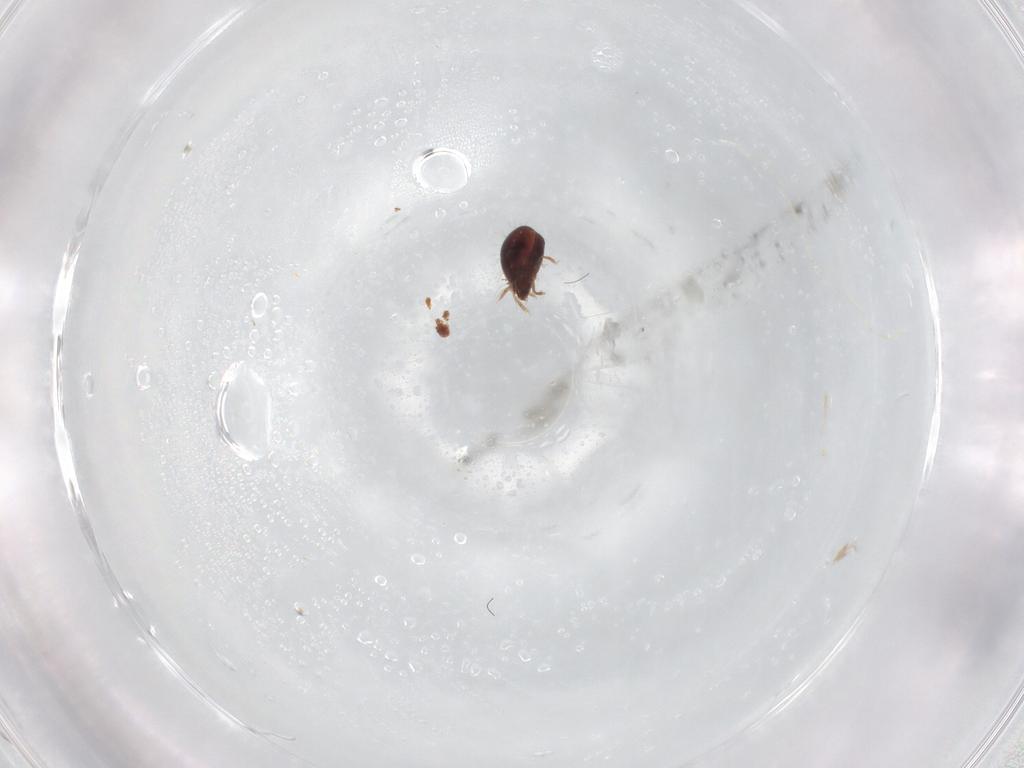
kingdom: Animalia
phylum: Arthropoda
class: Arachnida
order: Sarcoptiformes
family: Humerobatidae
